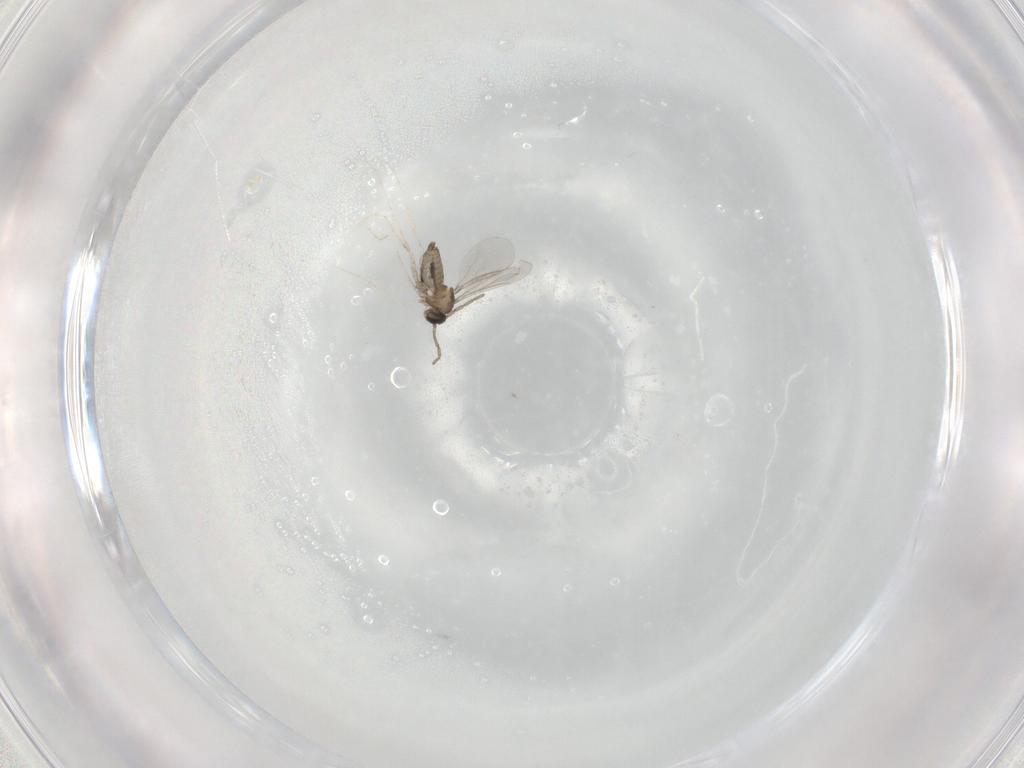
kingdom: Animalia
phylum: Arthropoda
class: Insecta
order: Diptera
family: Cecidomyiidae
